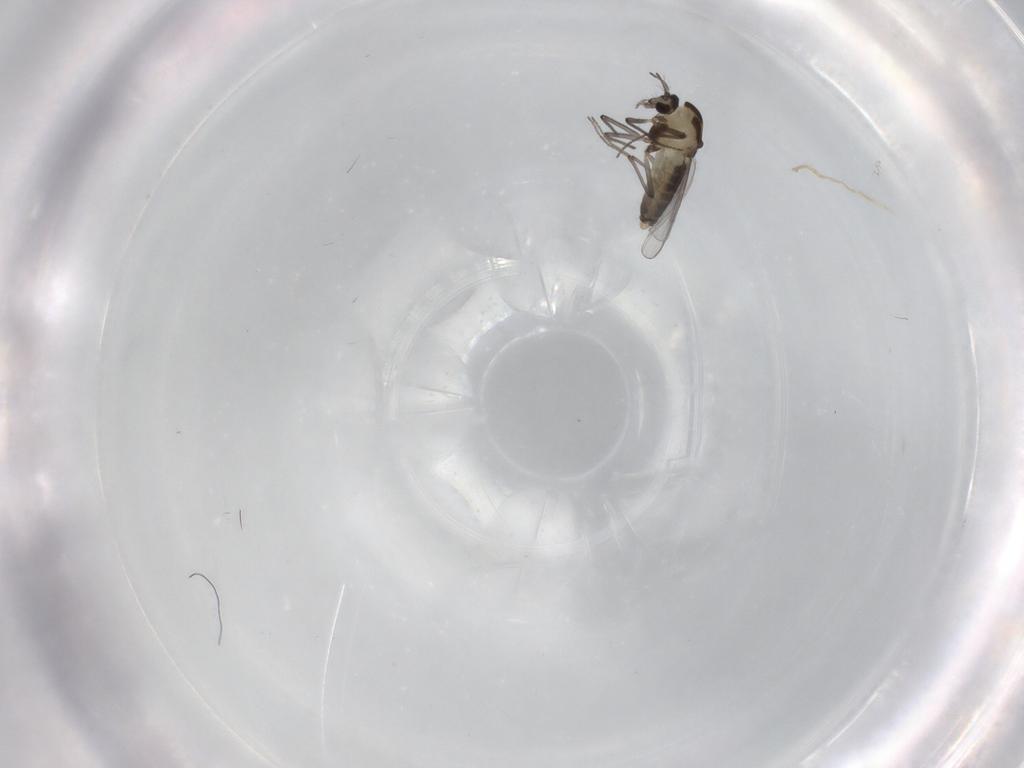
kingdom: Animalia
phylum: Arthropoda
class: Insecta
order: Diptera
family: Chironomidae
